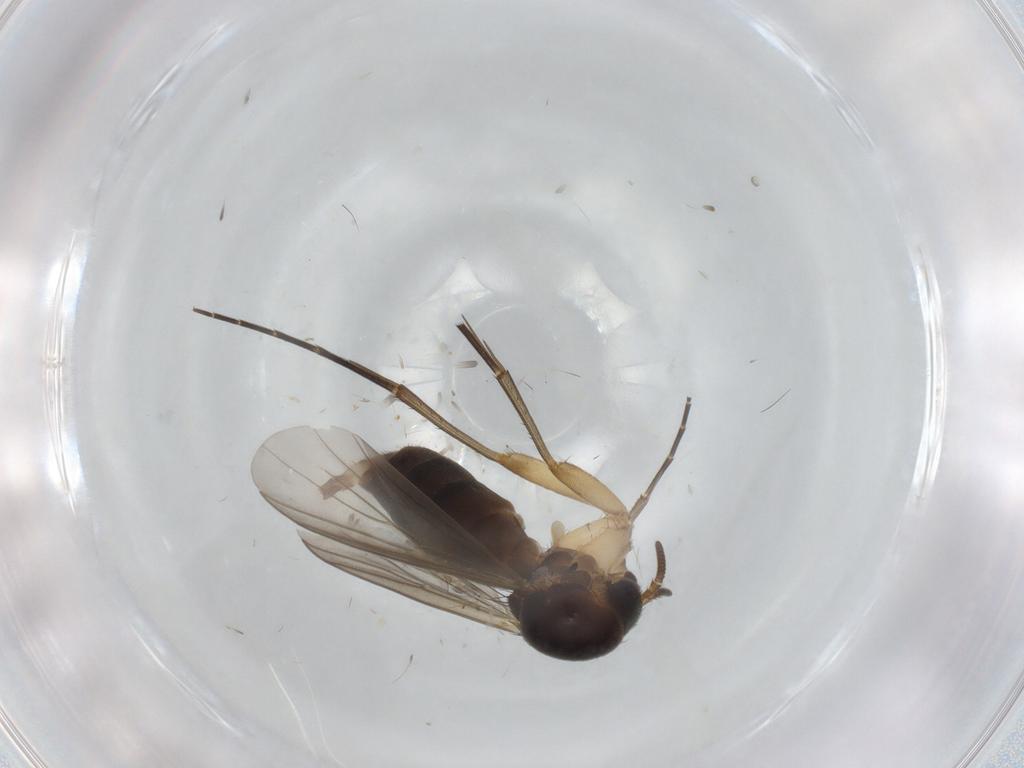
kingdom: Animalia
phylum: Arthropoda
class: Insecta
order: Diptera
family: Mycetophilidae
